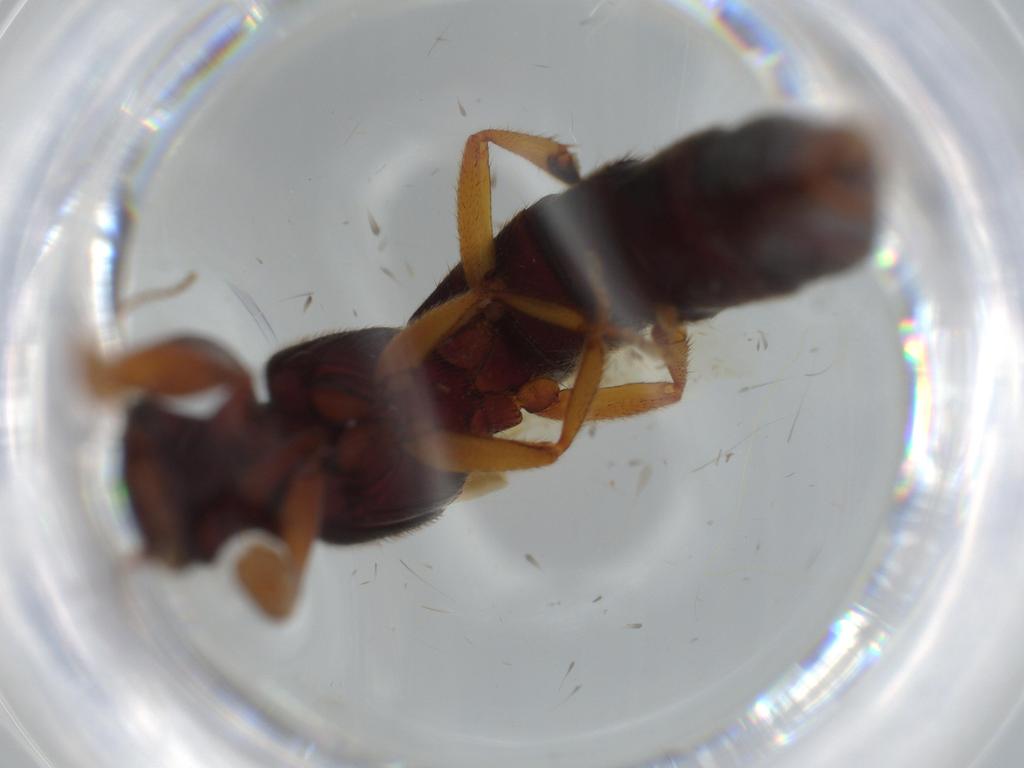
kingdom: Animalia
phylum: Arthropoda
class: Insecta
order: Coleoptera
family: Staphylinidae
